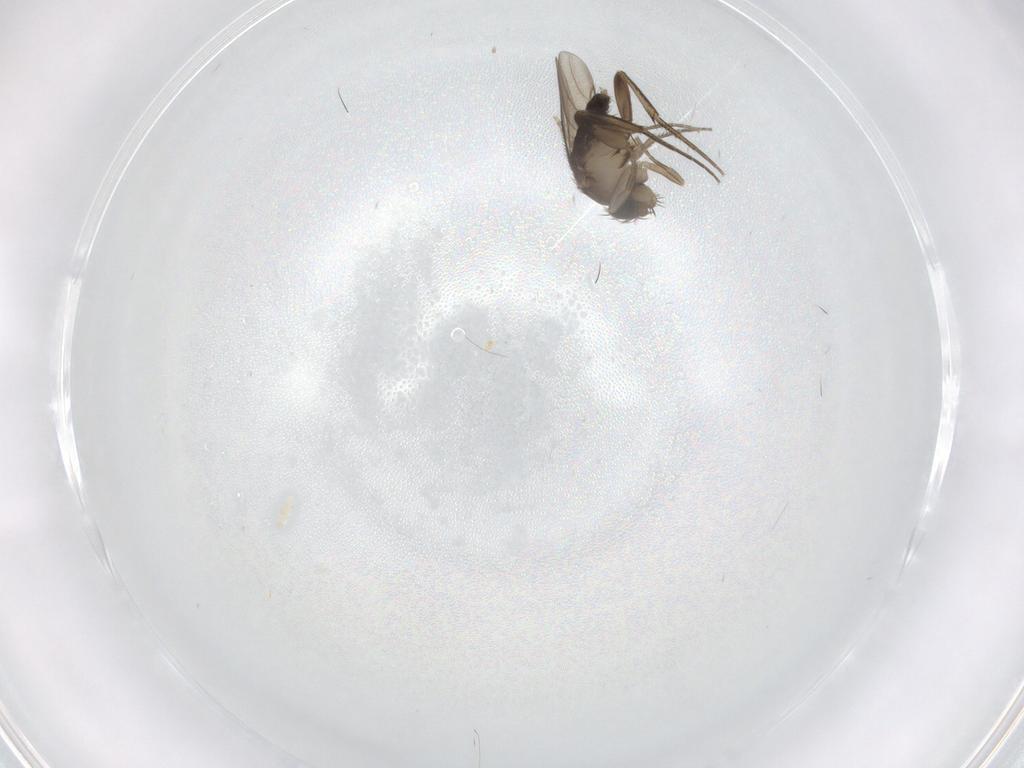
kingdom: Animalia
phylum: Arthropoda
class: Insecta
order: Diptera
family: Phoridae
